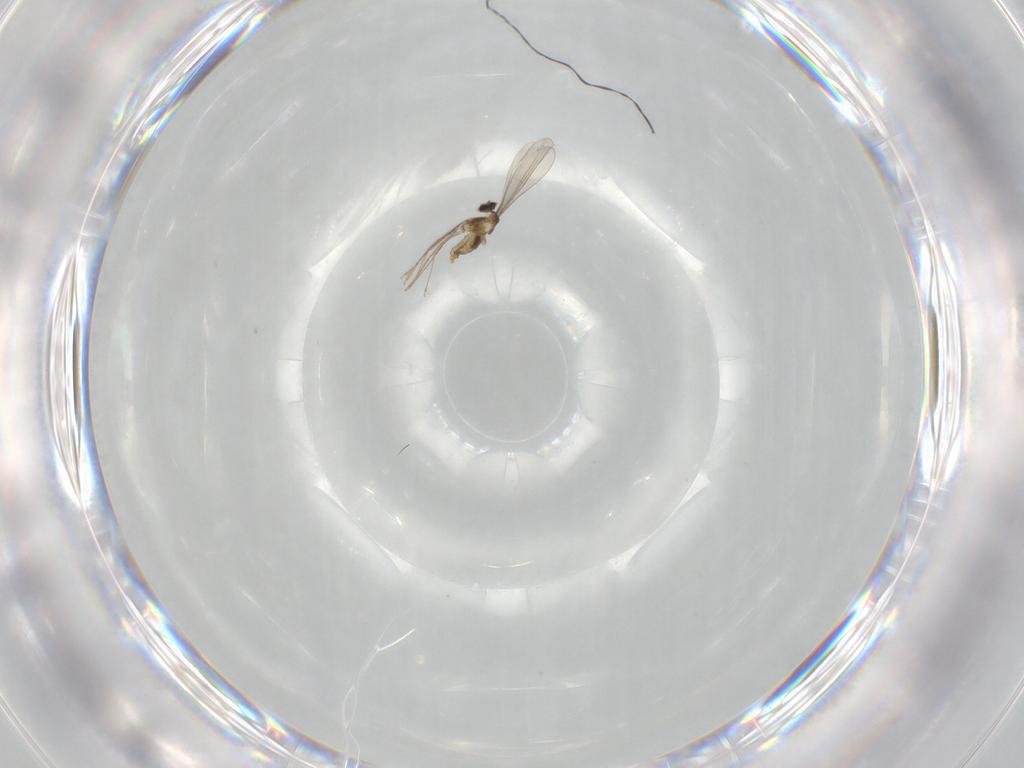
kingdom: Animalia
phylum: Arthropoda
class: Insecta
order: Diptera
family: Cecidomyiidae
